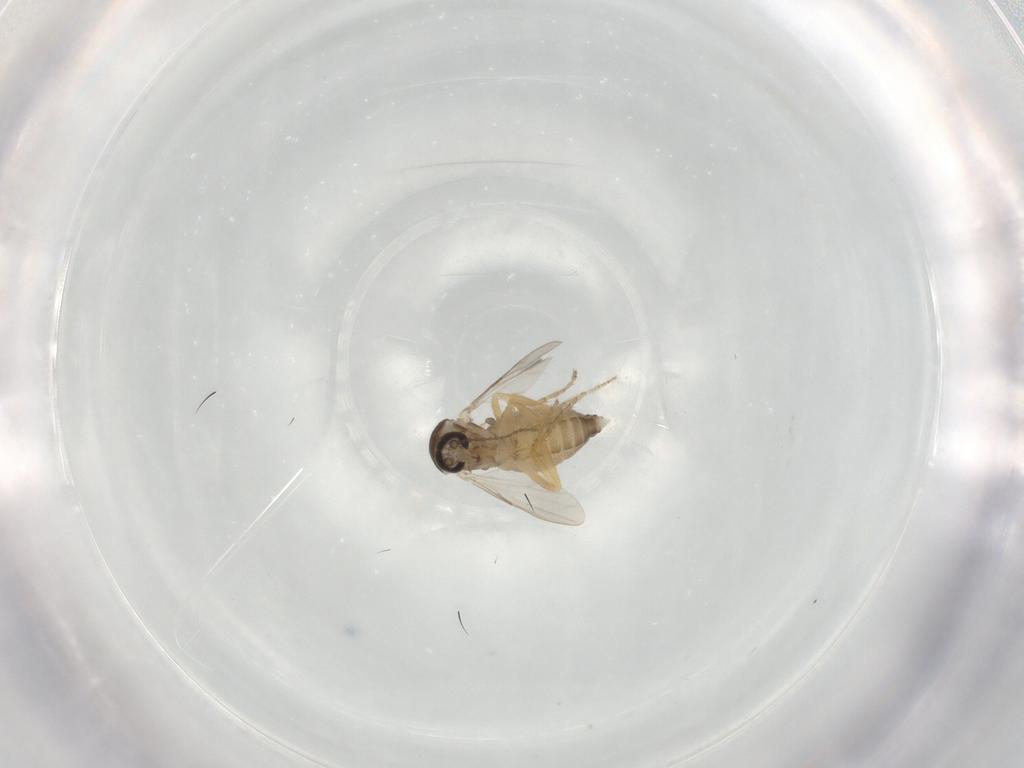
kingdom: Animalia
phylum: Arthropoda
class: Insecta
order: Diptera
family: Ceratopogonidae
